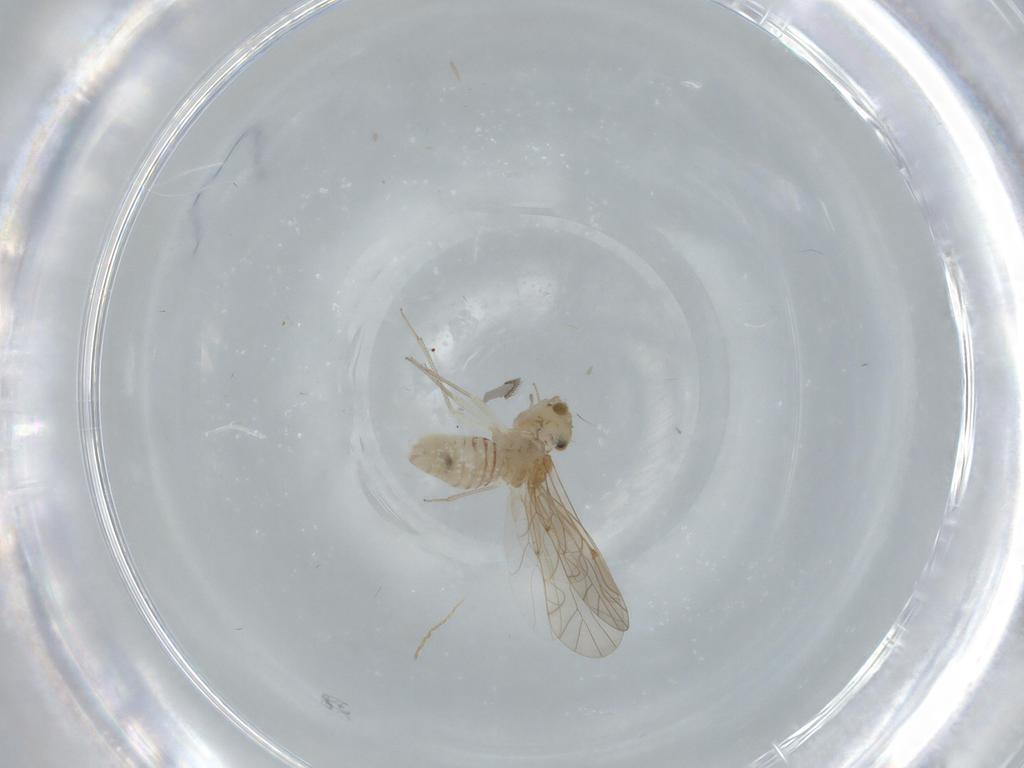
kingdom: Animalia
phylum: Arthropoda
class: Insecta
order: Psocodea
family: Lachesillidae
